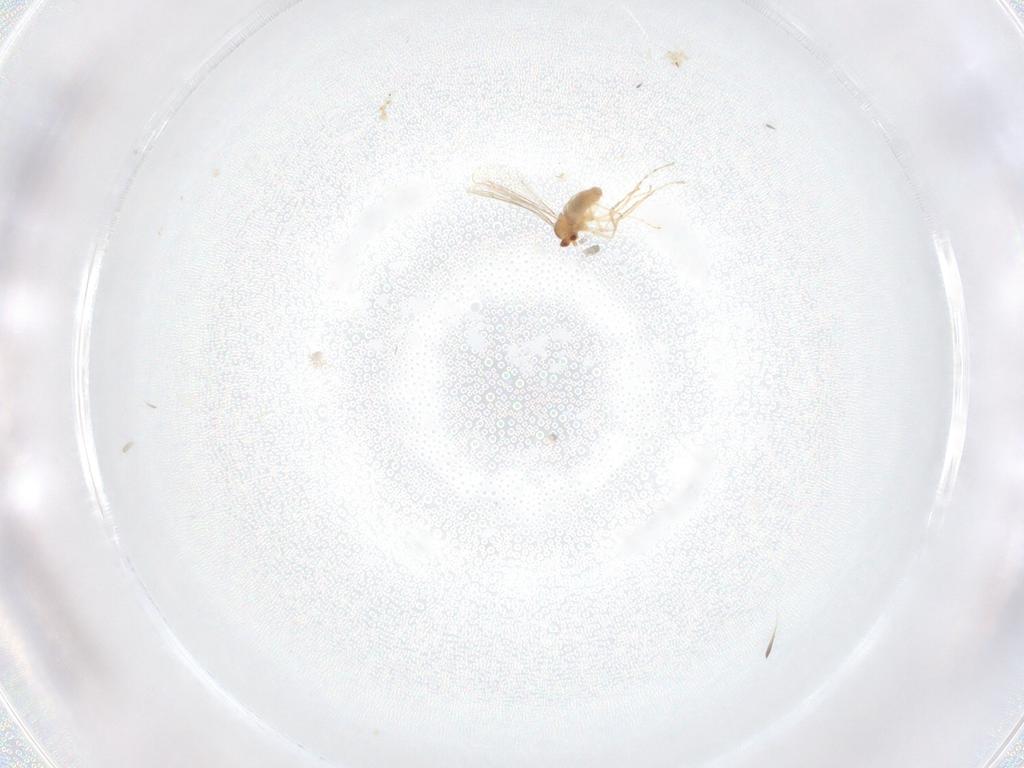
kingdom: Animalia
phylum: Arthropoda
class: Insecta
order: Diptera
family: Cecidomyiidae
